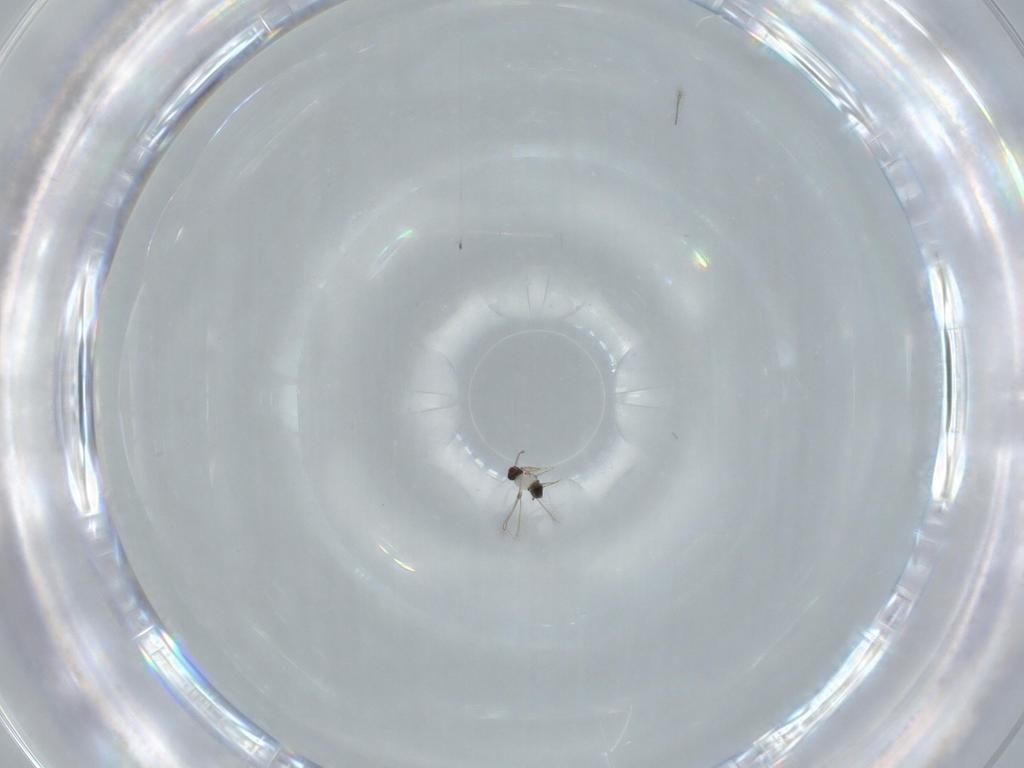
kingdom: Animalia
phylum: Arthropoda
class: Insecta
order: Hymenoptera
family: Mymaridae
